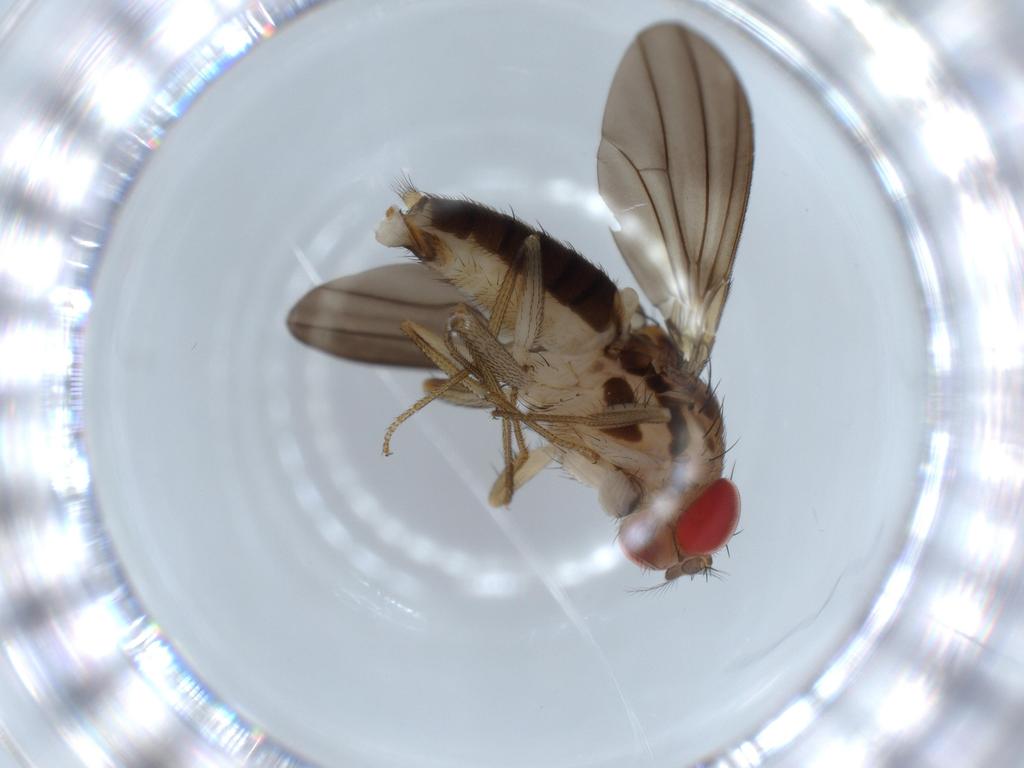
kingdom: Animalia
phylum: Arthropoda
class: Insecta
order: Diptera
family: Drosophilidae
